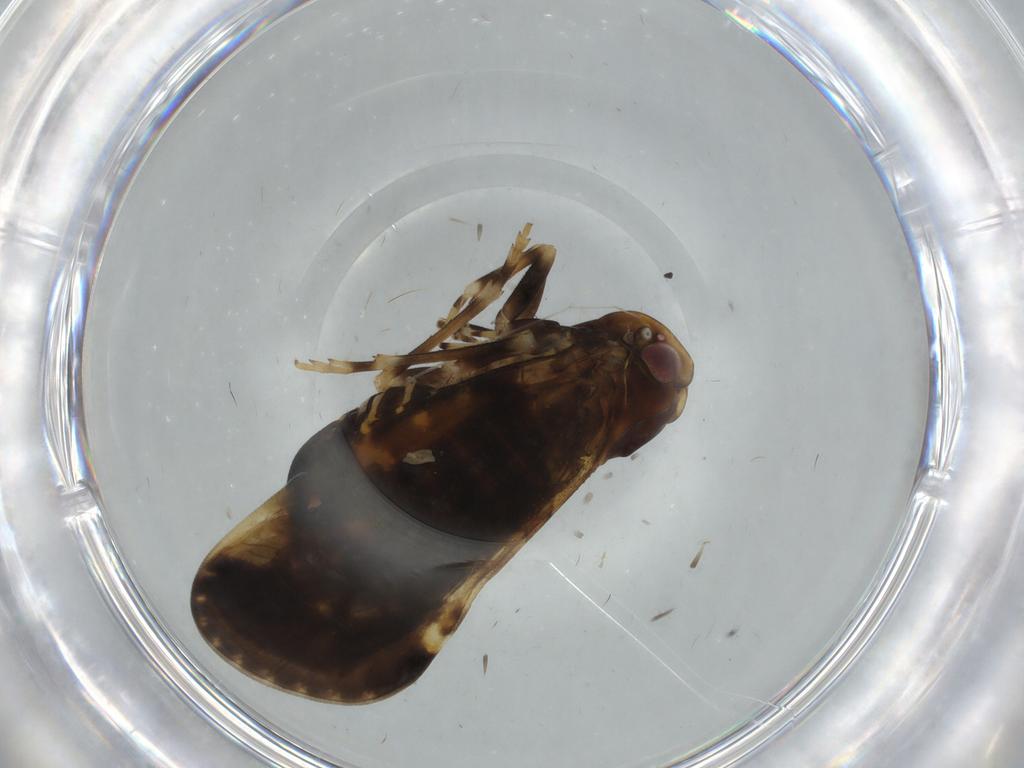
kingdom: Animalia
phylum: Arthropoda
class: Insecta
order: Hemiptera
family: Cixiidae
